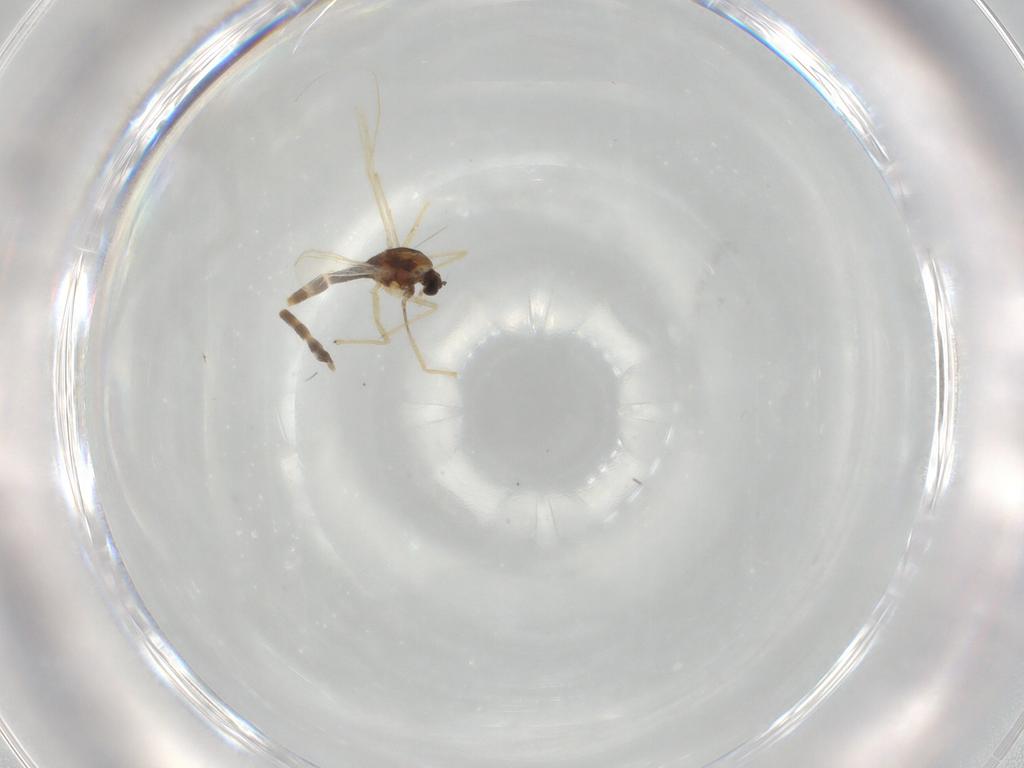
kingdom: Animalia
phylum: Arthropoda
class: Insecta
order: Diptera
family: Chironomidae
